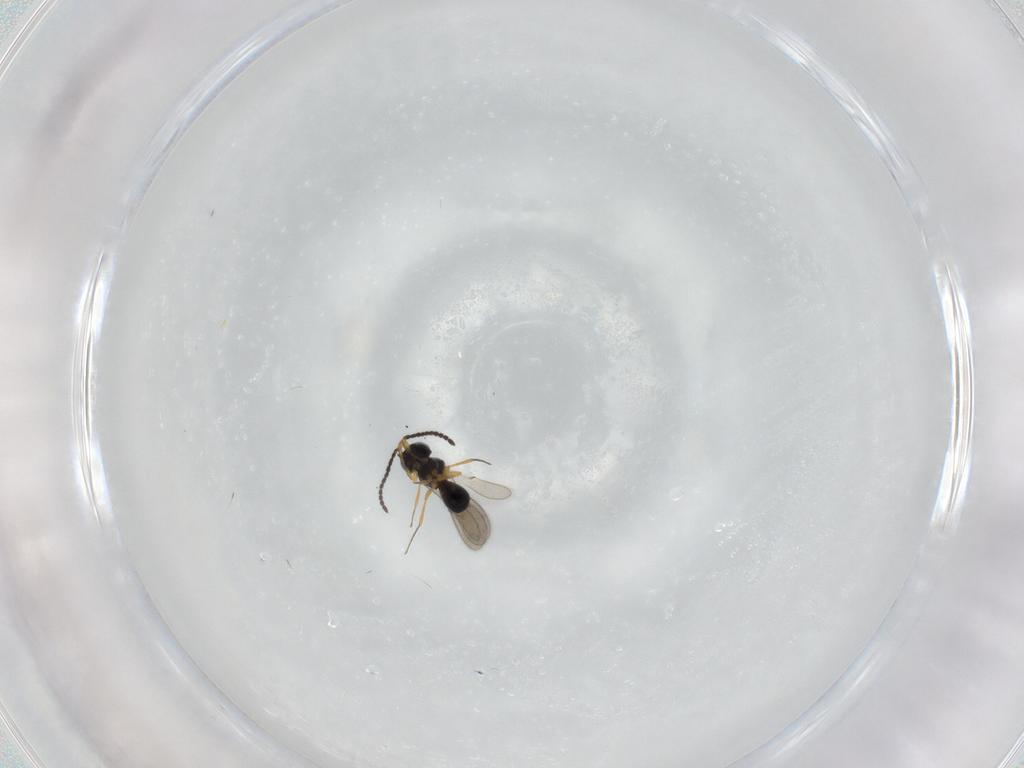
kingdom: Animalia
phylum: Arthropoda
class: Insecta
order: Hymenoptera
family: Scelionidae
